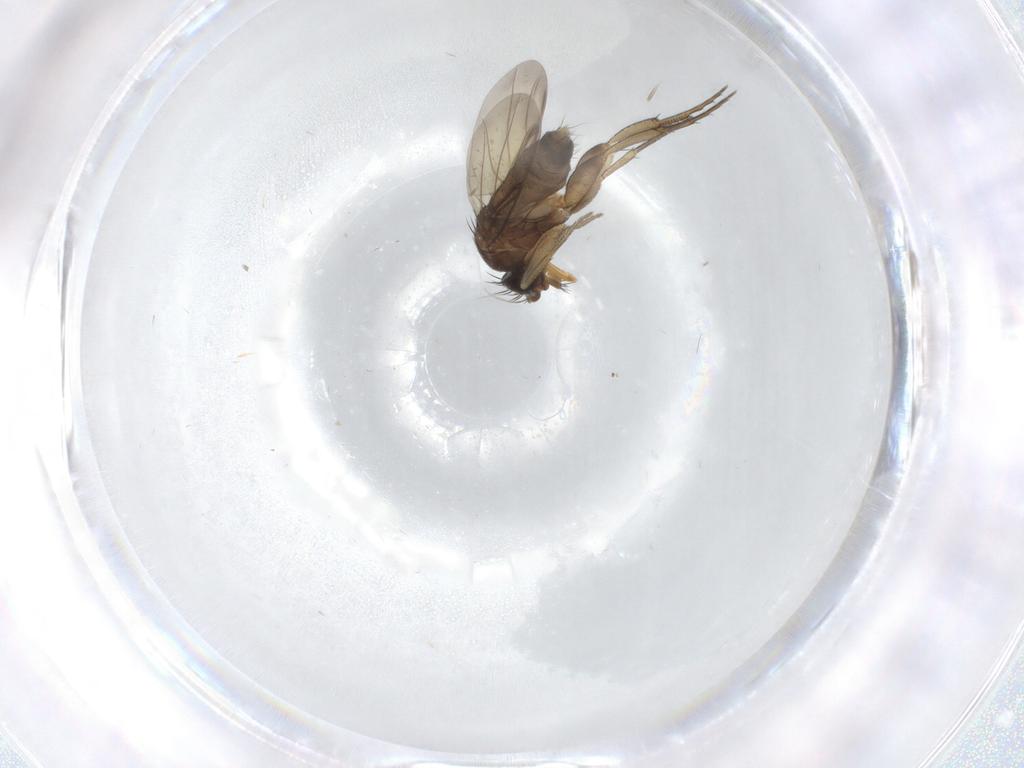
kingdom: Animalia
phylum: Arthropoda
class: Insecta
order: Diptera
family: Phoridae
